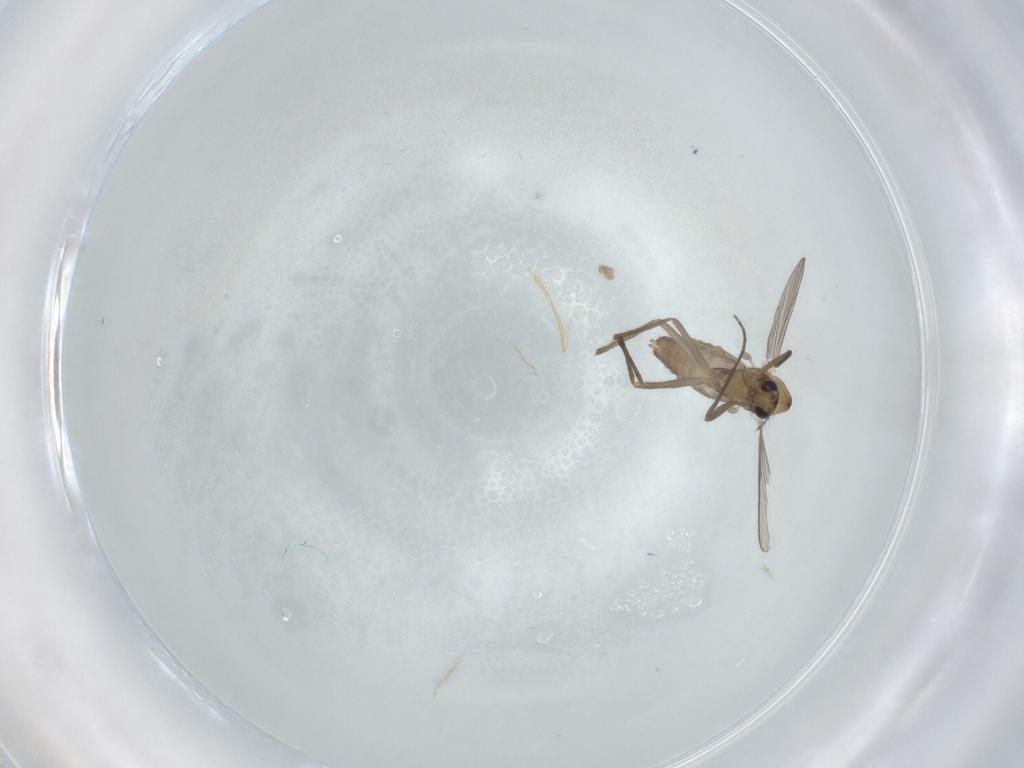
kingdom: Animalia
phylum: Arthropoda
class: Insecta
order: Diptera
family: Chironomidae
